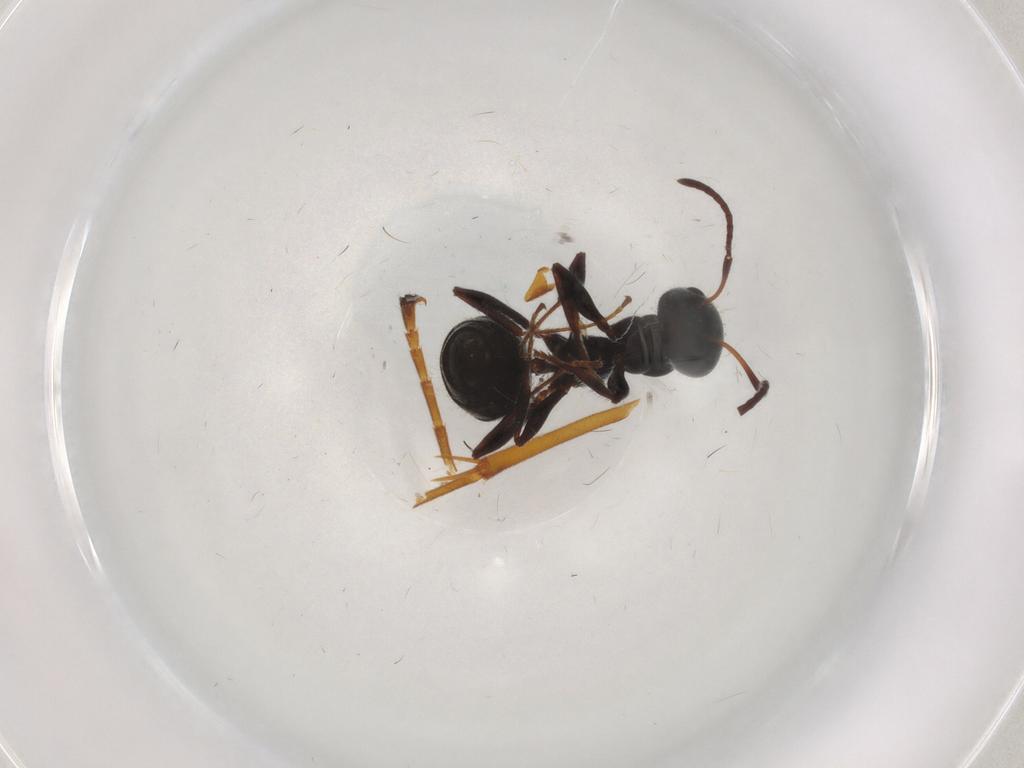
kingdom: Animalia
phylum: Arthropoda
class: Insecta
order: Hymenoptera
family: Formicidae
